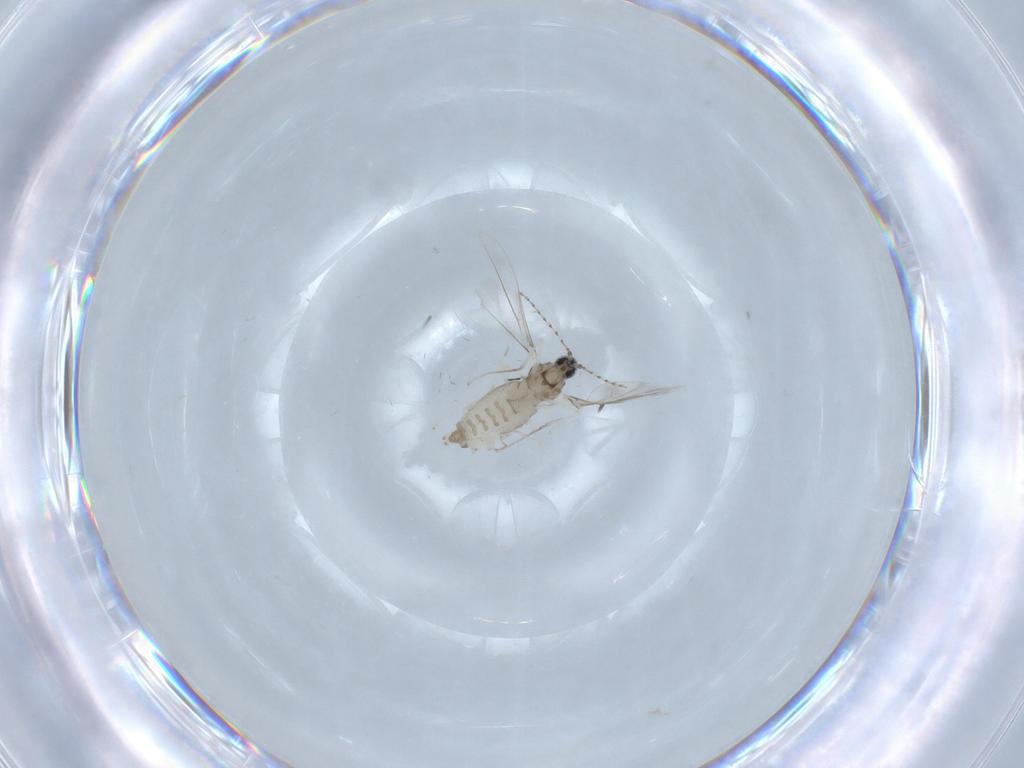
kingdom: Animalia
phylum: Arthropoda
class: Insecta
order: Diptera
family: Cecidomyiidae
